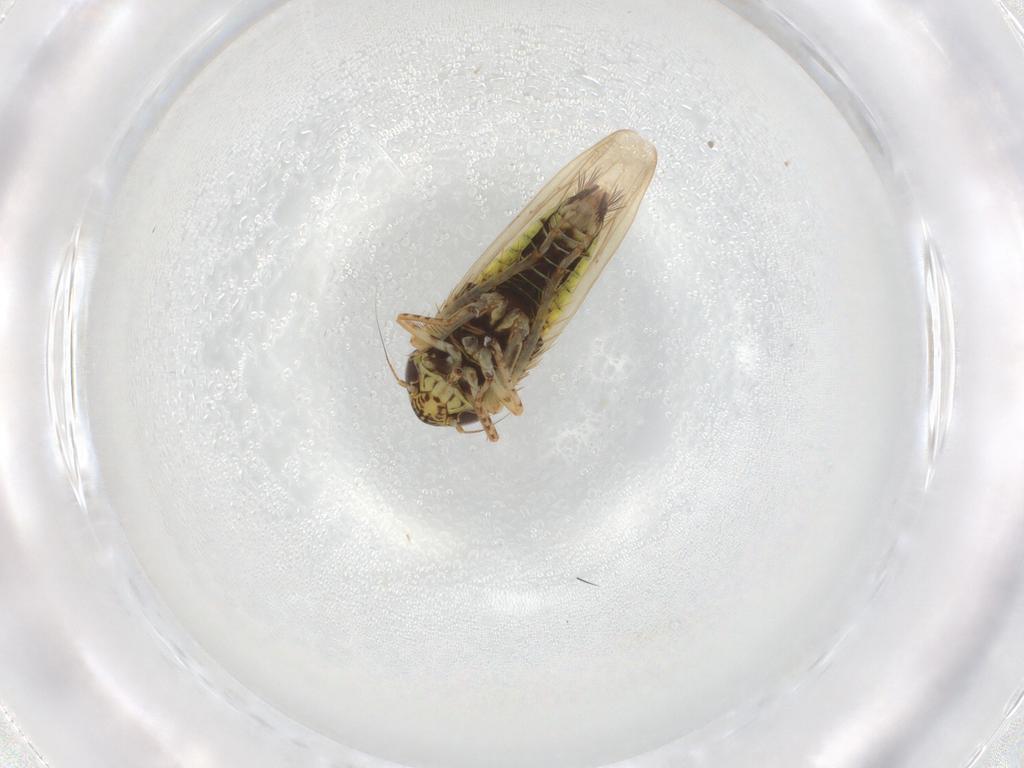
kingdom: Animalia
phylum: Arthropoda
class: Insecta
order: Hemiptera
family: Cicadellidae
